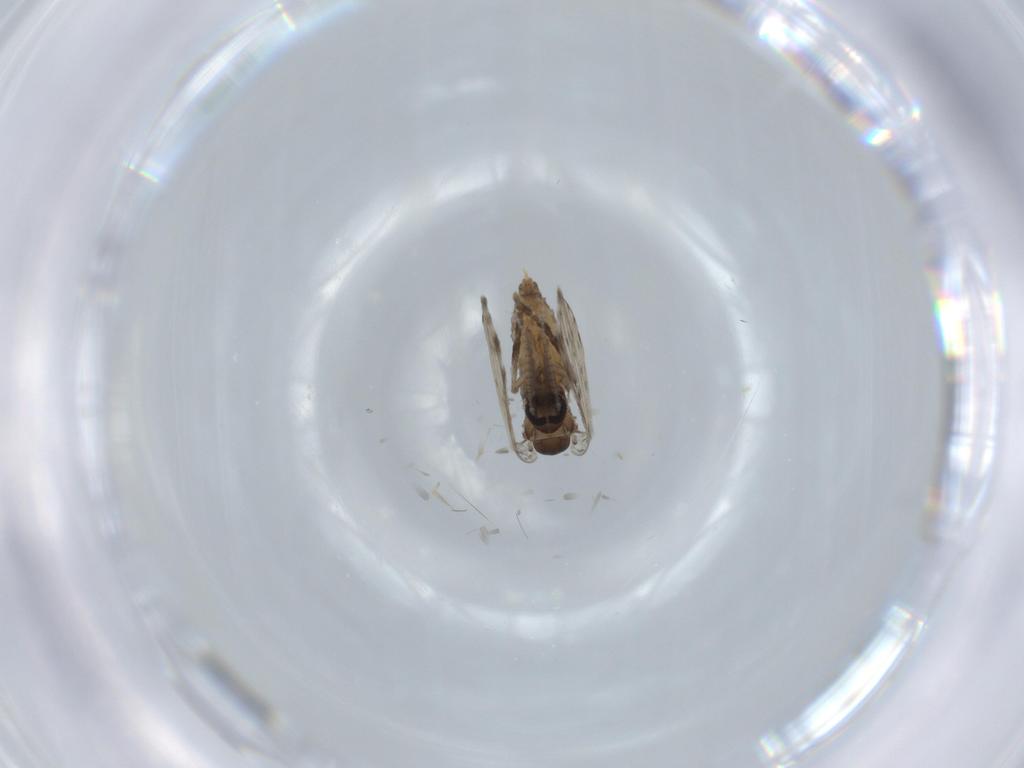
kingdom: Animalia
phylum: Arthropoda
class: Insecta
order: Diptera
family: Psychodidae
